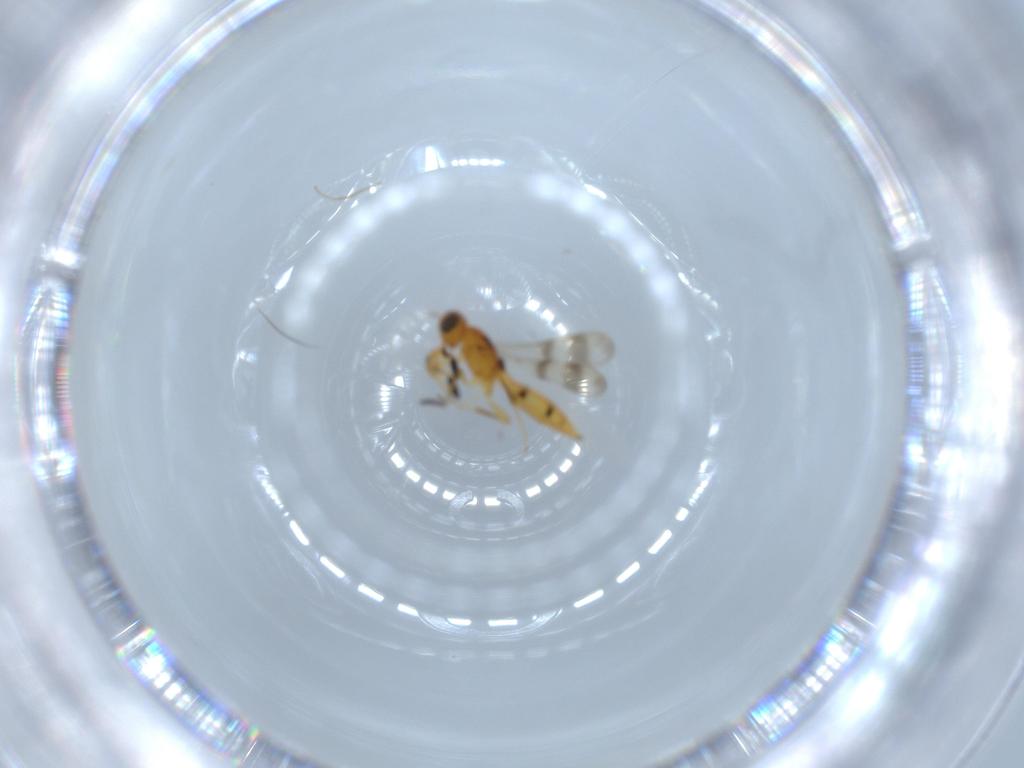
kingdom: Animalia
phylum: Arthropoda
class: Insecta
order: Hymenoptera
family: Scelionidae
